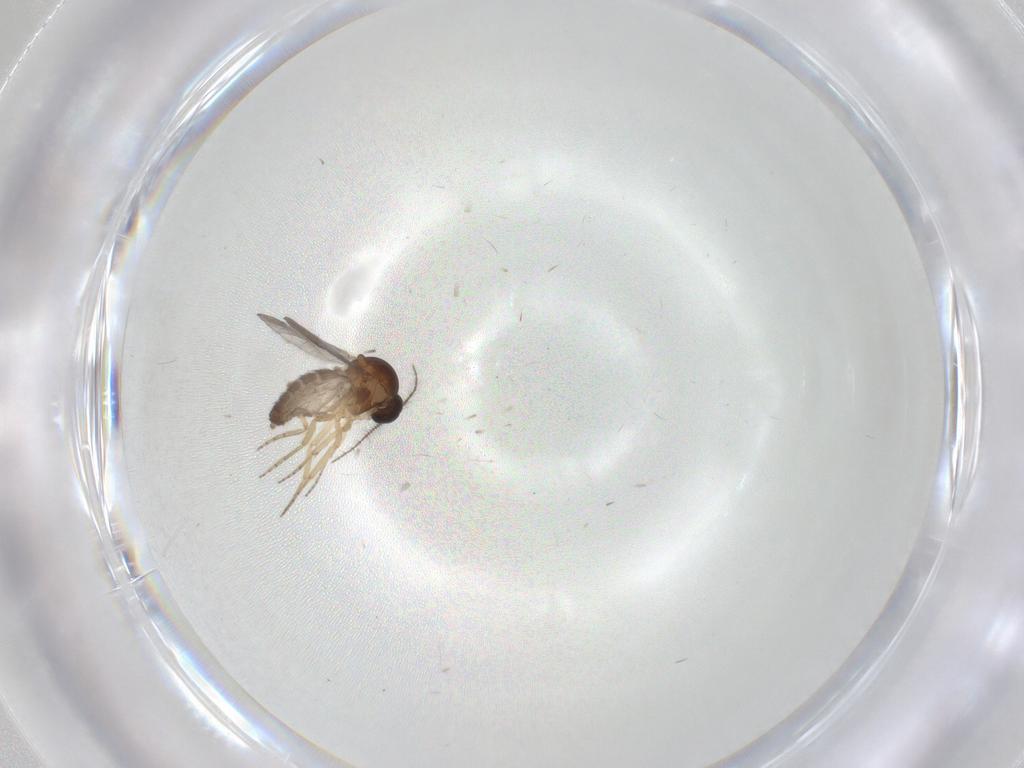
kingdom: Animalia
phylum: Arthropoda
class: Insecta
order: Diptera
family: Ceratopogonidae
